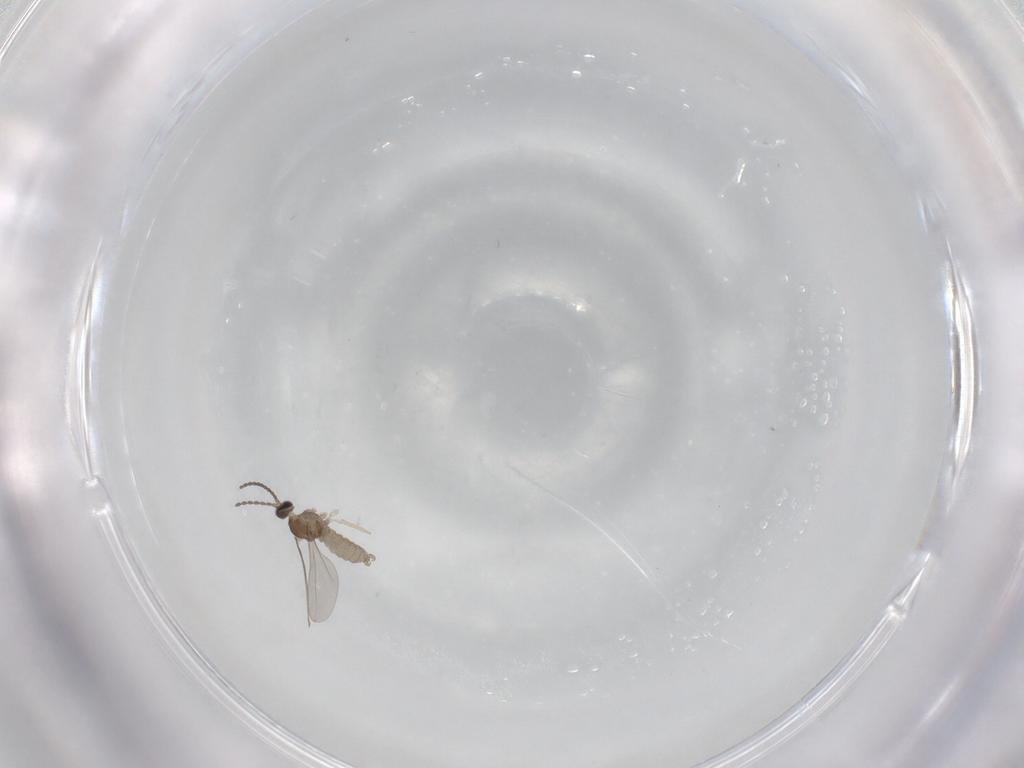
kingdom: Animalia
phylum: Arthropoda
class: Insecta
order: Diptera
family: Cecidomyiidae
